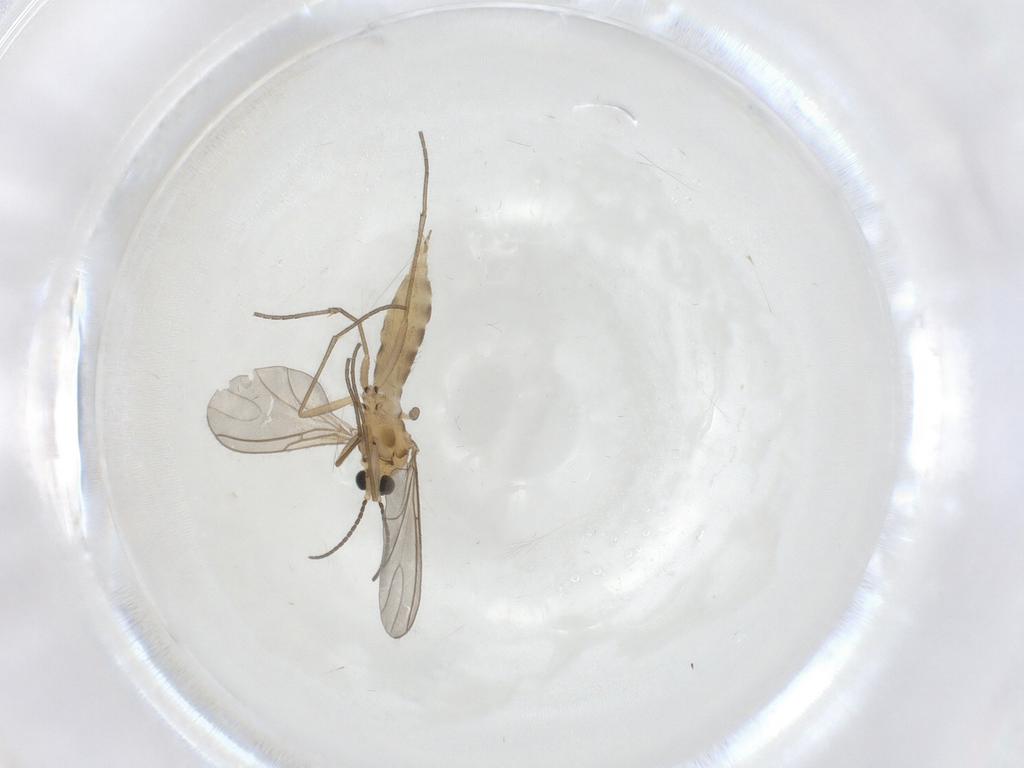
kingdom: Animalia
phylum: Arthropoda
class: Insecta
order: Diptera
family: Sciaridae
